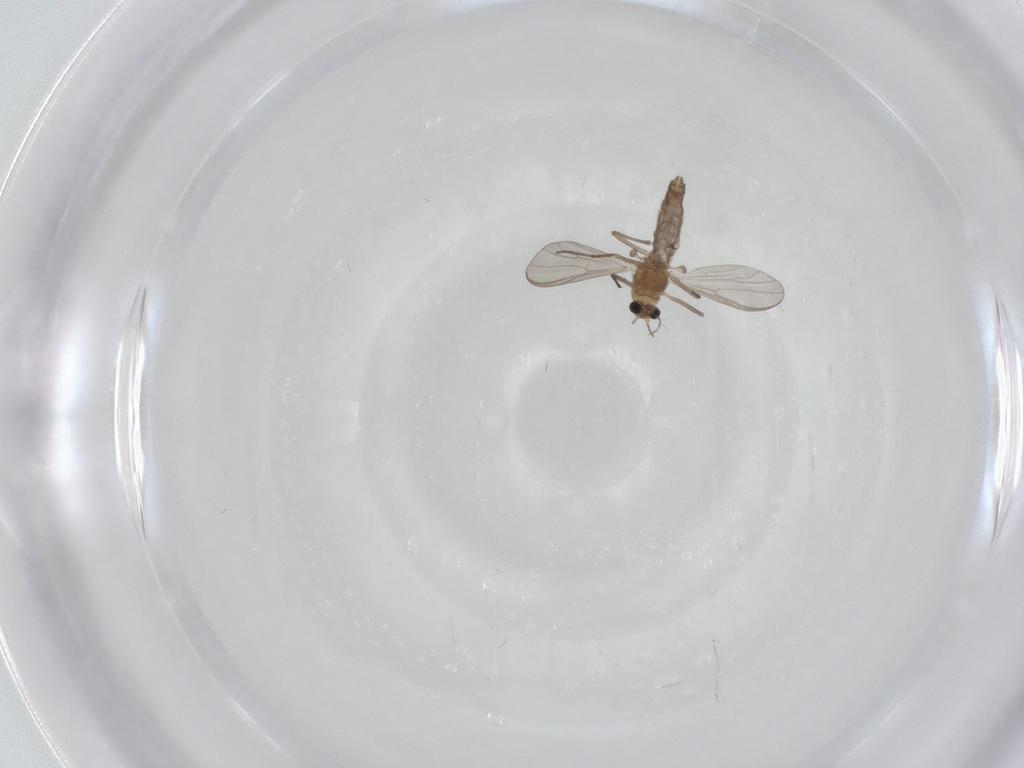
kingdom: Animalia
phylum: Arthropoda
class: Insecta
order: Diptera
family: Chironomidae
